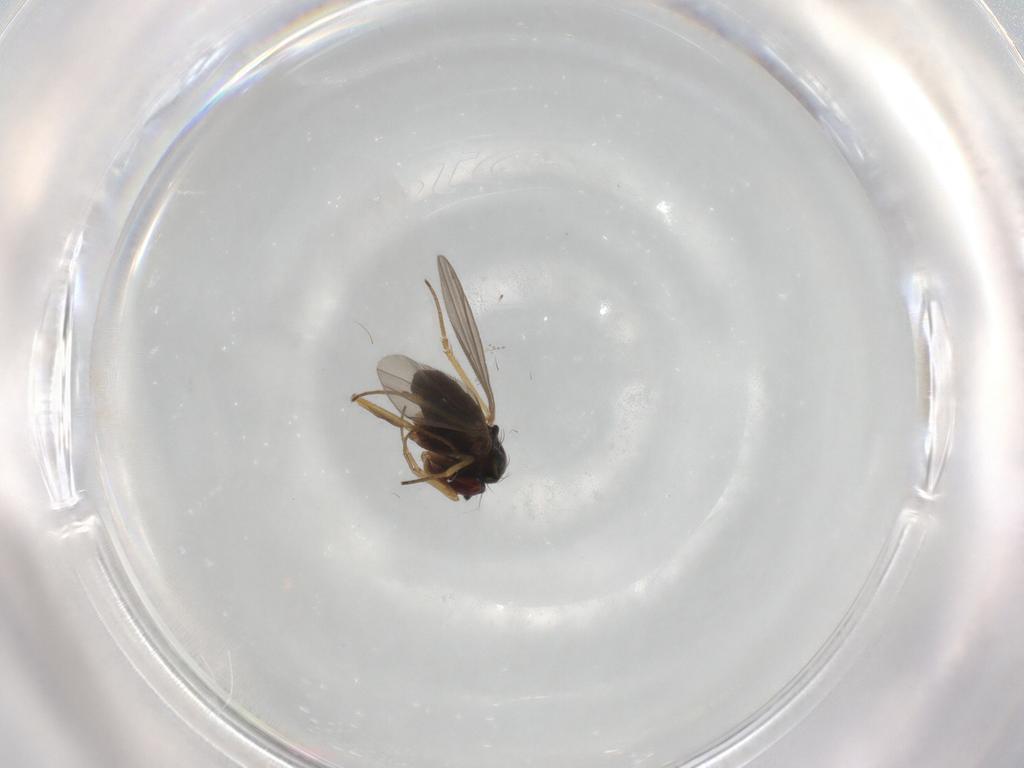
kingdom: Animalia
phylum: Arthropoda
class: Insecta
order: Diptera
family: Dolichopodidae
